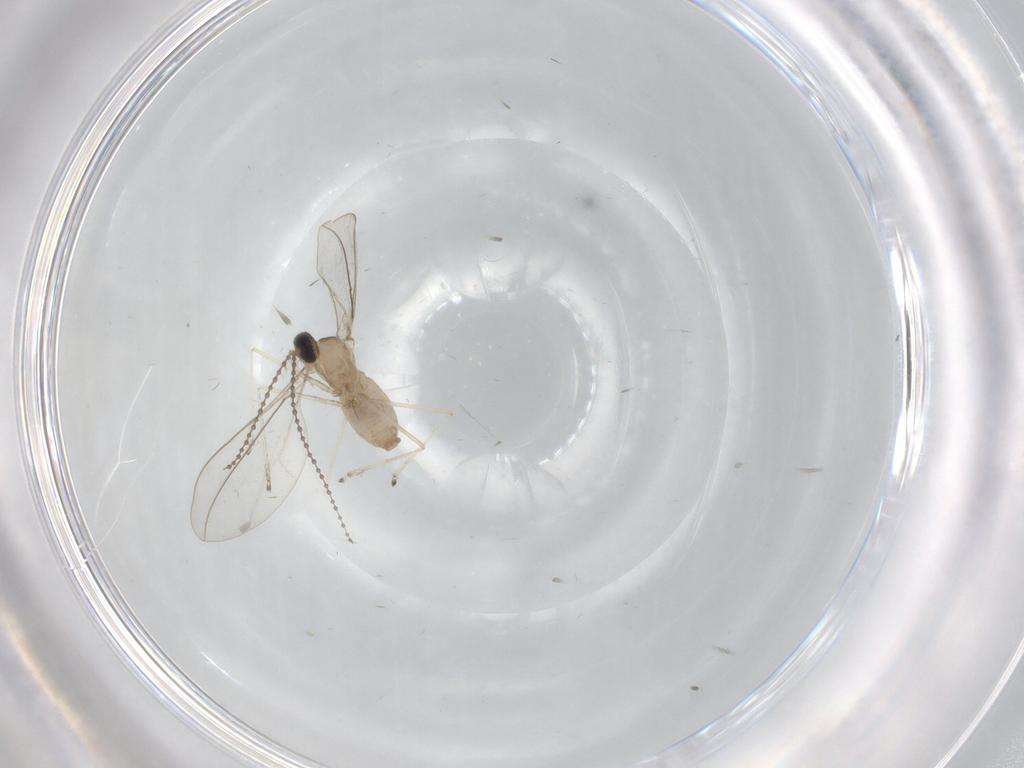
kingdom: Animalia
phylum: Arthropoda
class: Insecta
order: Diptera
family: Cecidomyiidae
